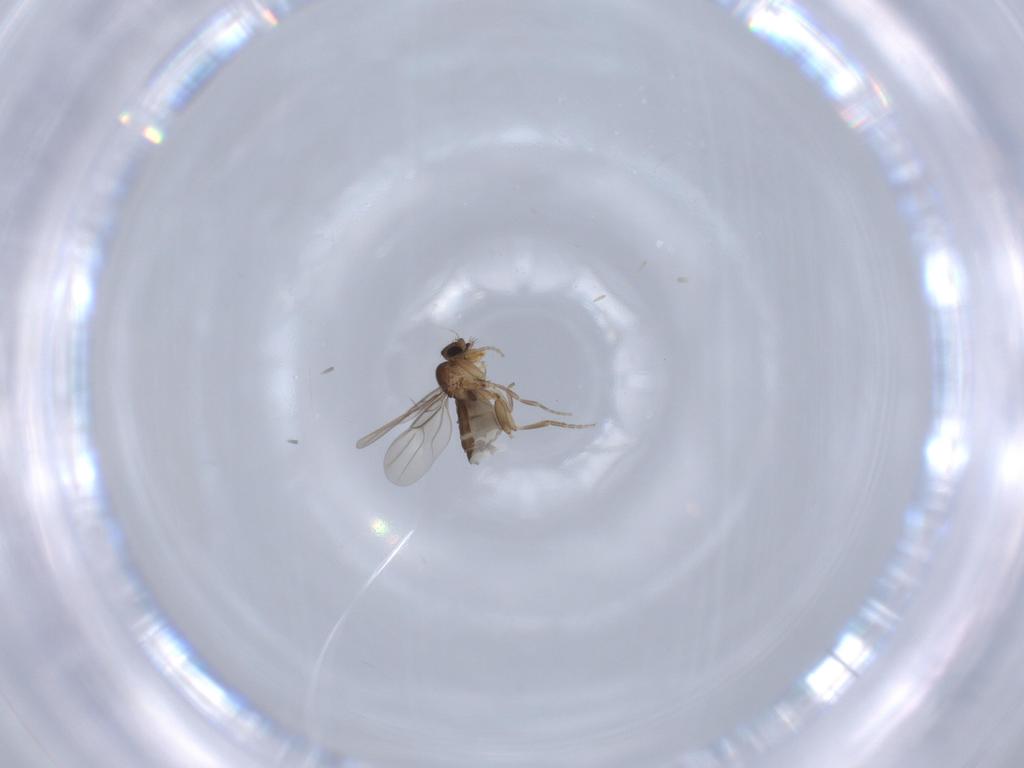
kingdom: Animalia
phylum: Arthropoda
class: Insecta
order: Diptera
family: Phoridae
